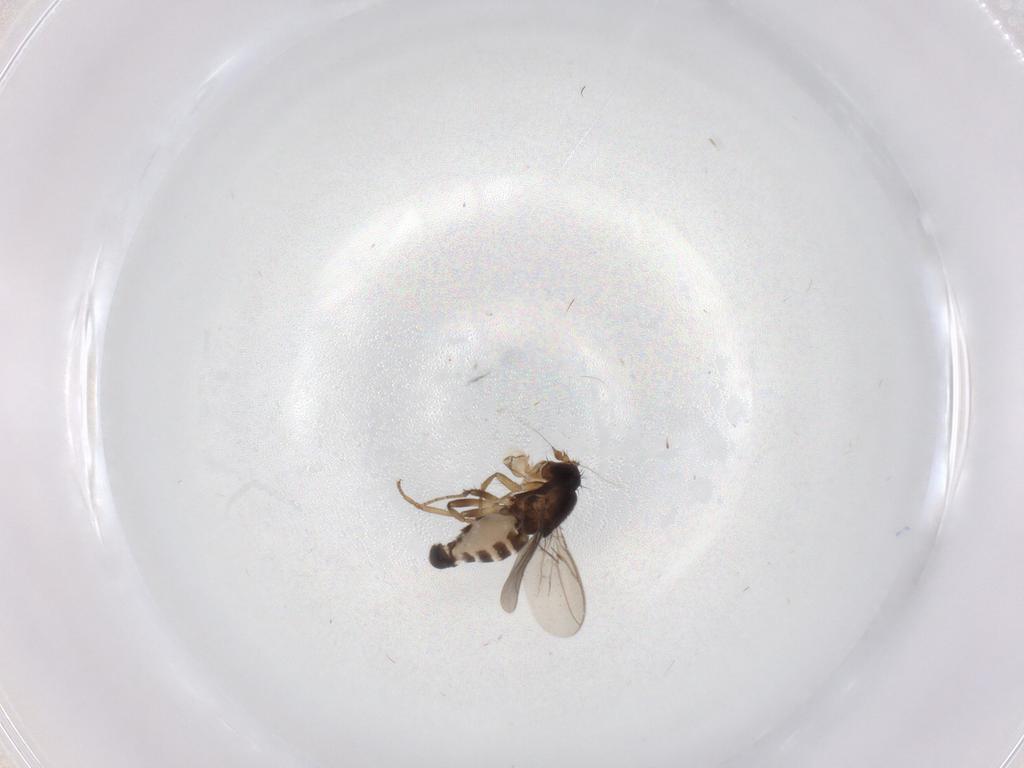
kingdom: Animalia
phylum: Arthropoda
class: Insecta
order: Diptera
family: Sphaeroceridae
